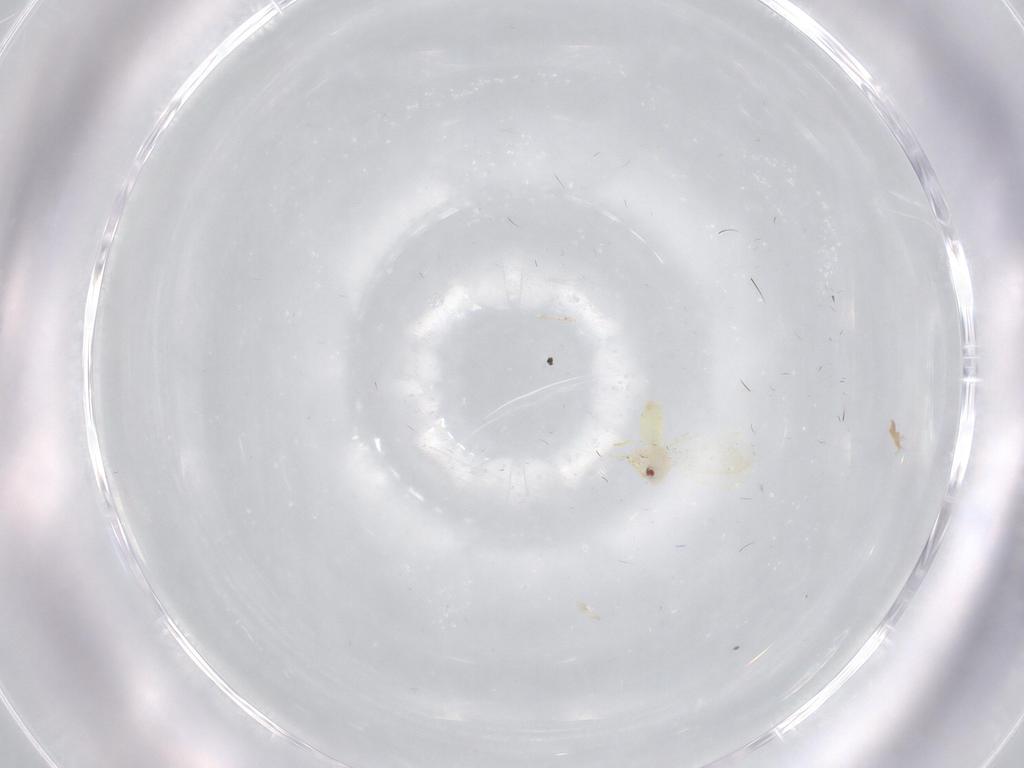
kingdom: Animalia
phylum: Arthropoda
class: Insecta
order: Hemiptera
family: Aleyrodidae
